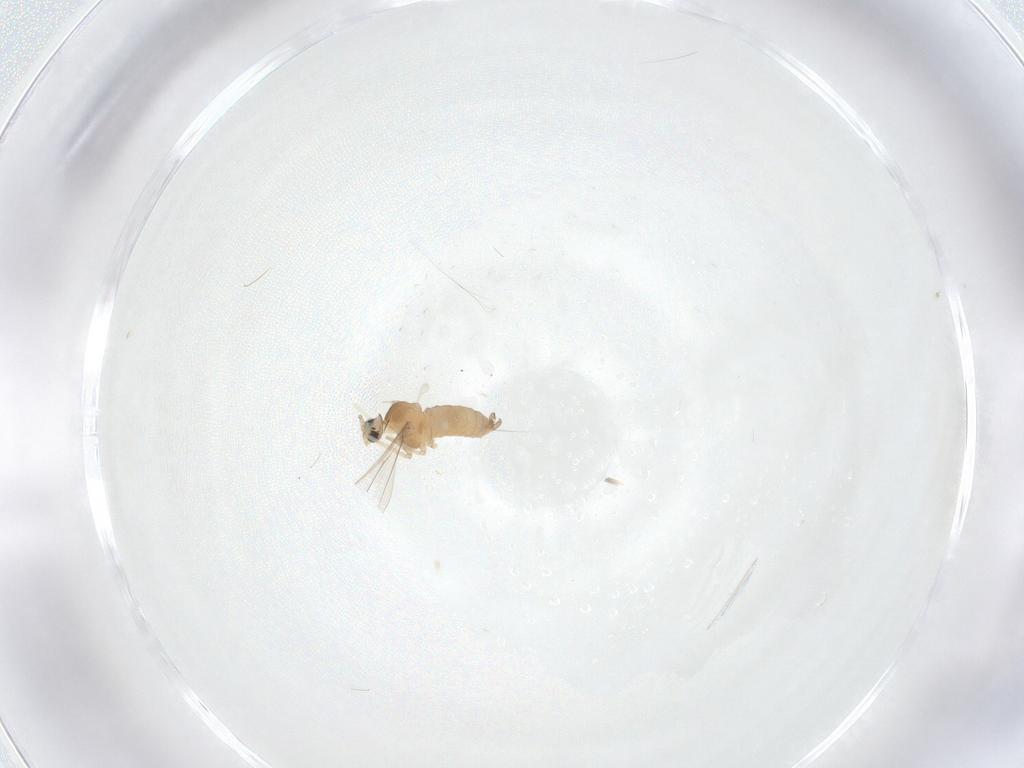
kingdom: Animalia
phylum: Arthropoda
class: Insecta
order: Diptera
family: Cecidomyiidae
